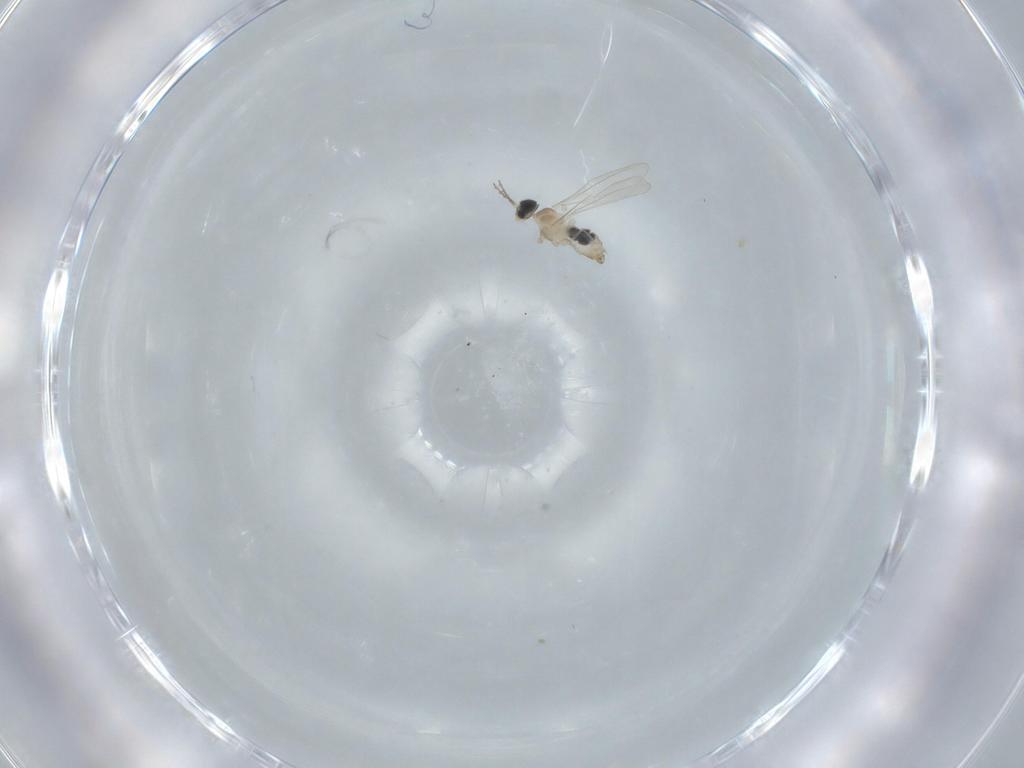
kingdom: Animalia
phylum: Arthropoda
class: Insecta
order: Diptera
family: Cecidomyiidae
